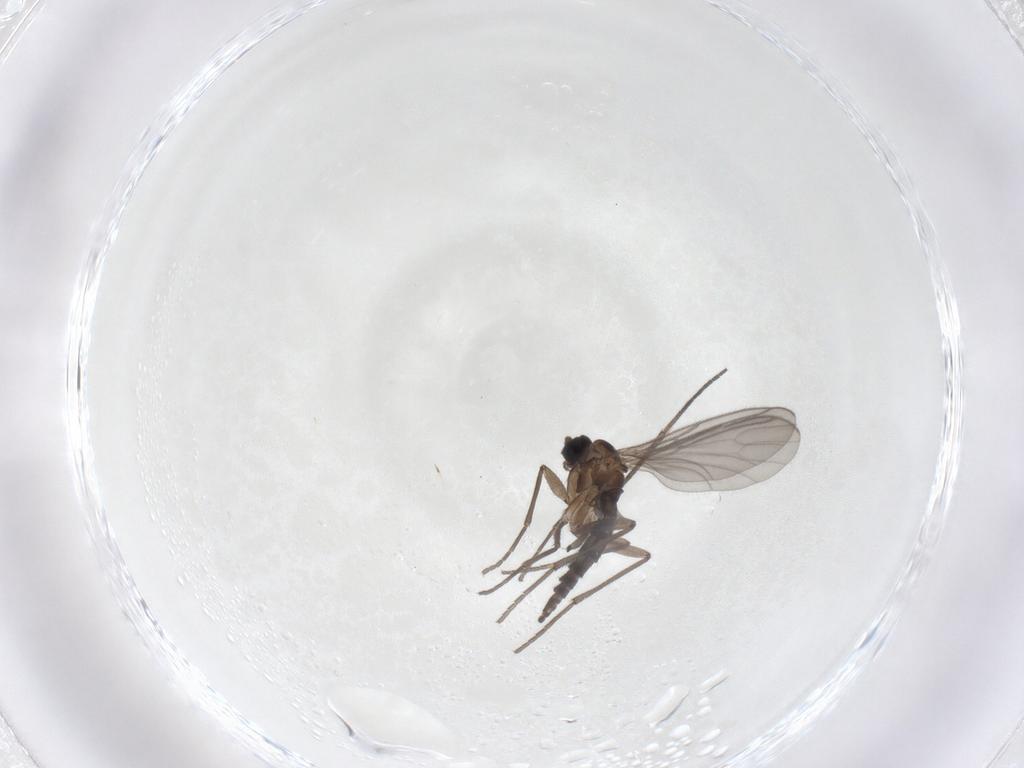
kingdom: Animalia
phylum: Arthropoda
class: Insecta
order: Diptera
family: Sciaridae
